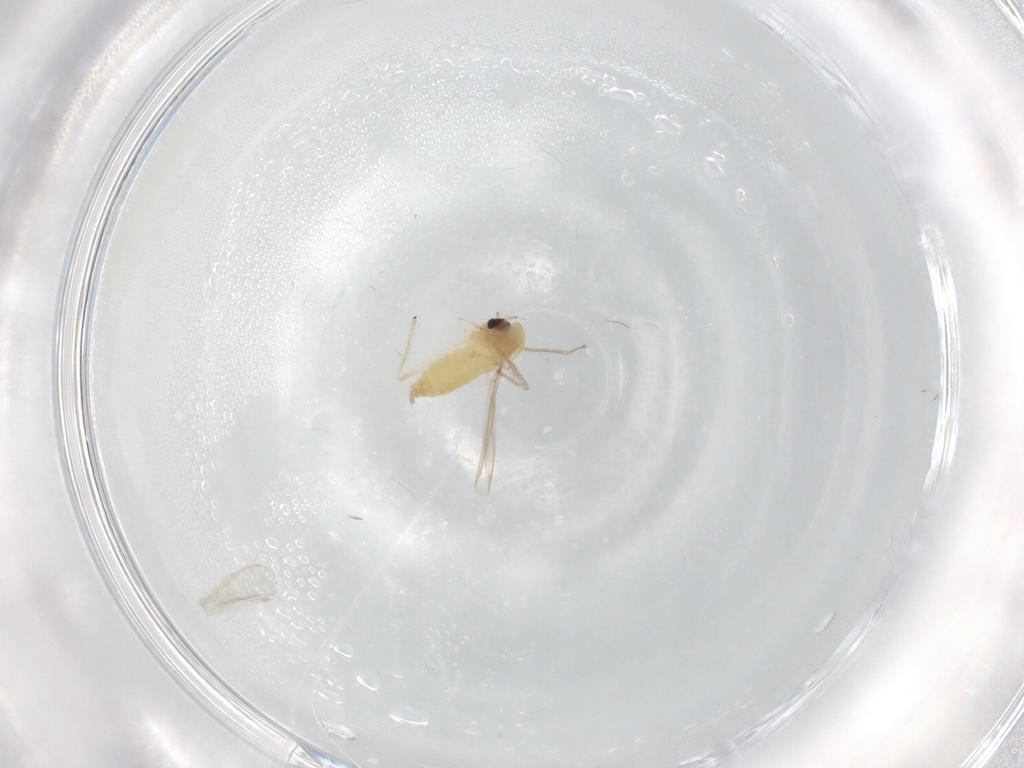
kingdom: Animalia
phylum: Arthropoda
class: Insecta
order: Diptera
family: Chironomidae
